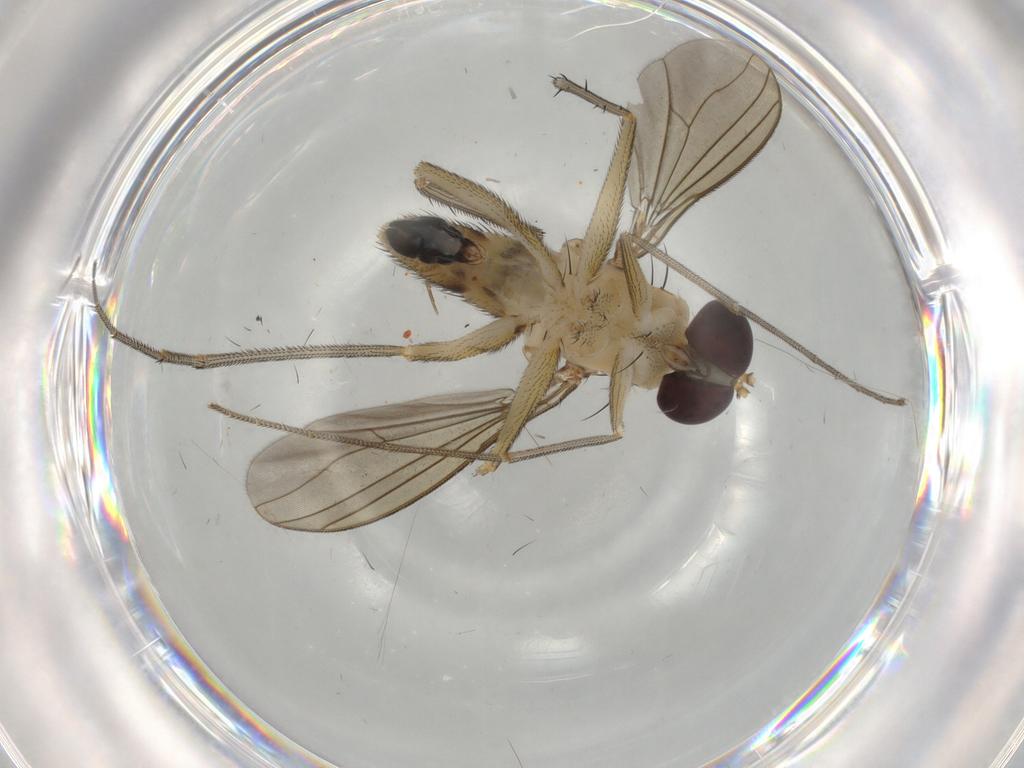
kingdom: Animalia
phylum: Arthropoda
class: Insecta
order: Diptera
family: Sciaridae
